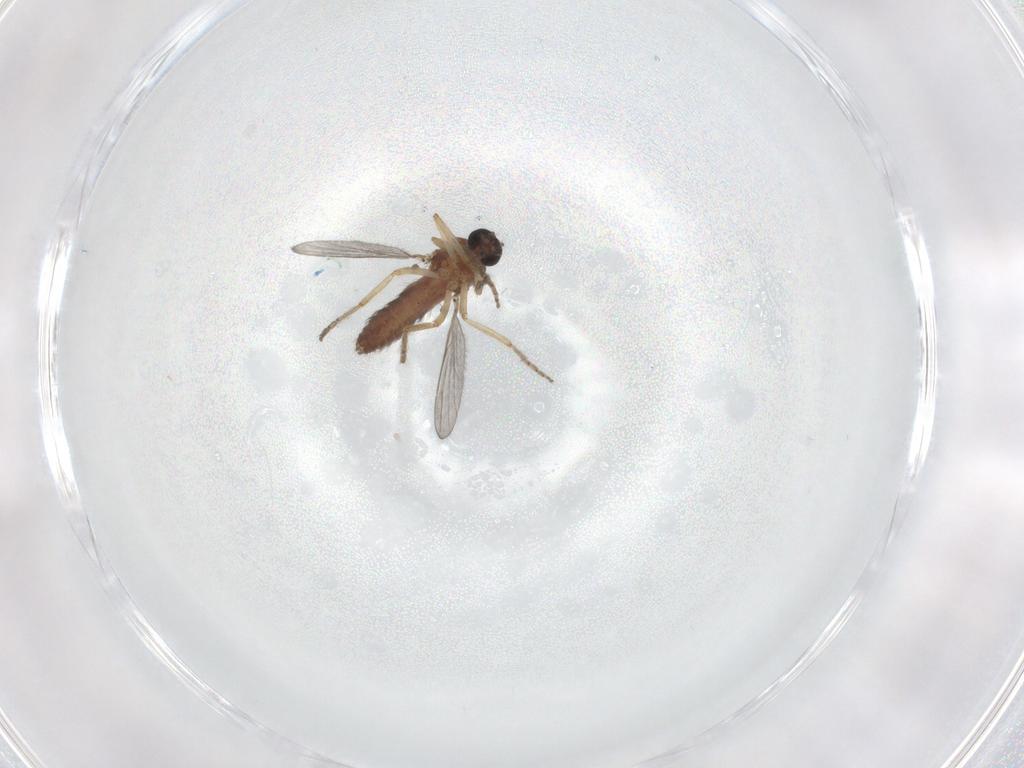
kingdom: Animalia
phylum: Arthropoda
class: Insecta
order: Diptera
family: Ceratopogonidae
